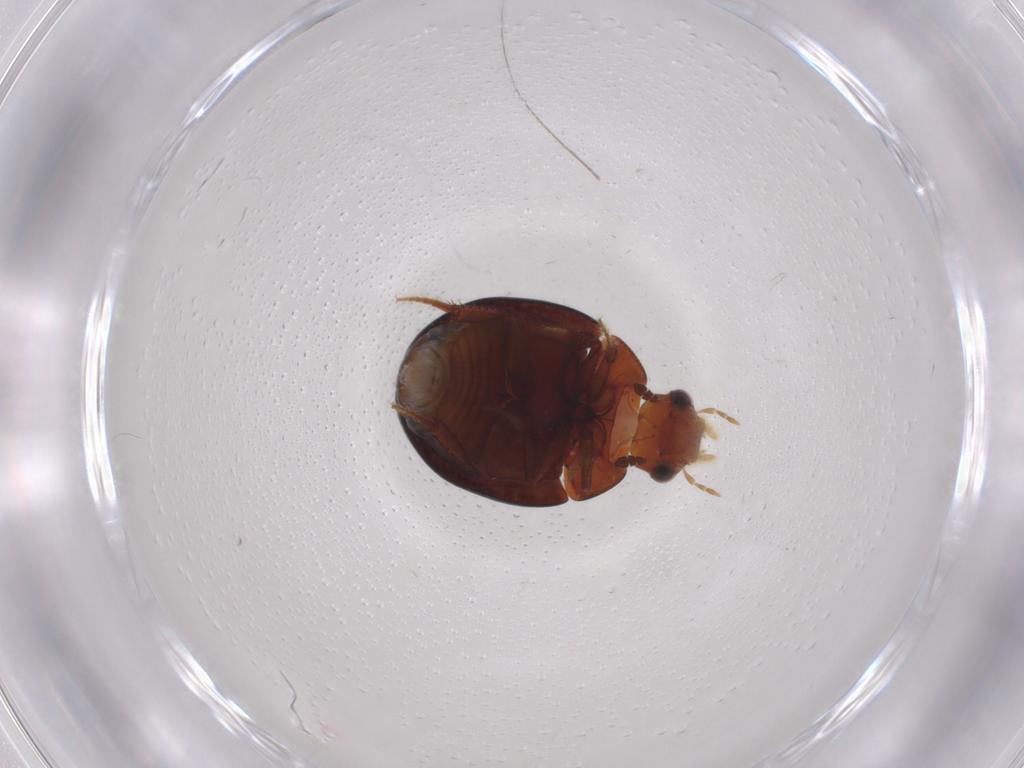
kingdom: Animalia
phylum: Arthropoda
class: Insecta
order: Coleoptera
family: Hydrophilidae
